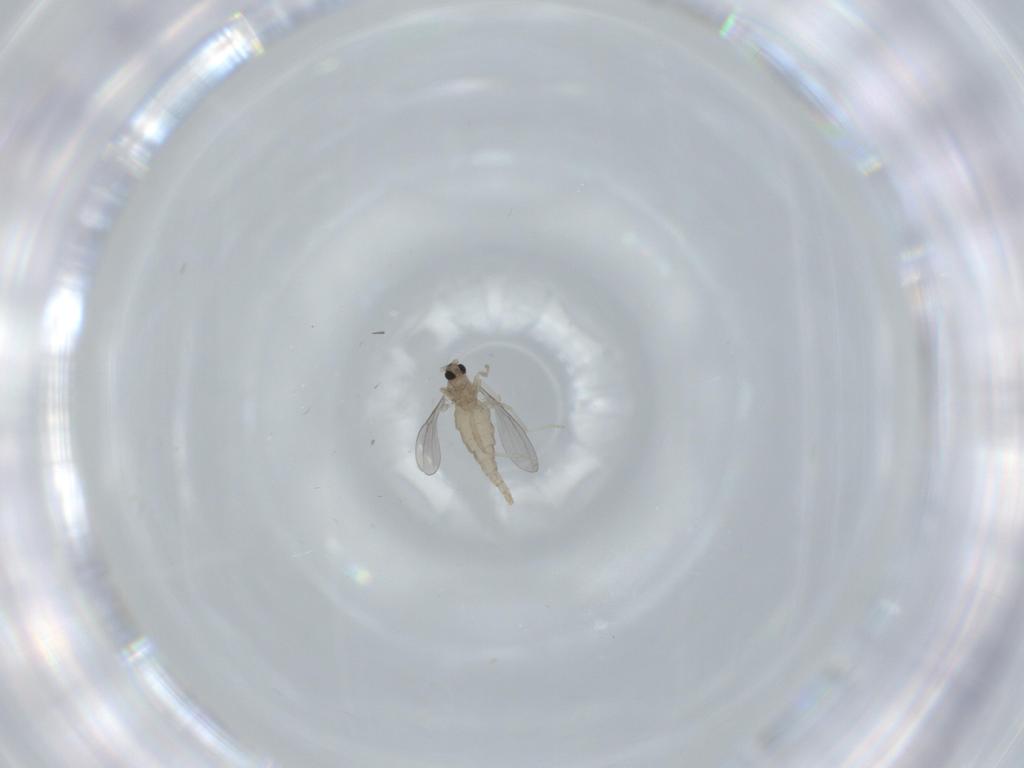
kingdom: Animalia
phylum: Arthropoda
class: Insecta
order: Diptera
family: Cecidomyiidae
